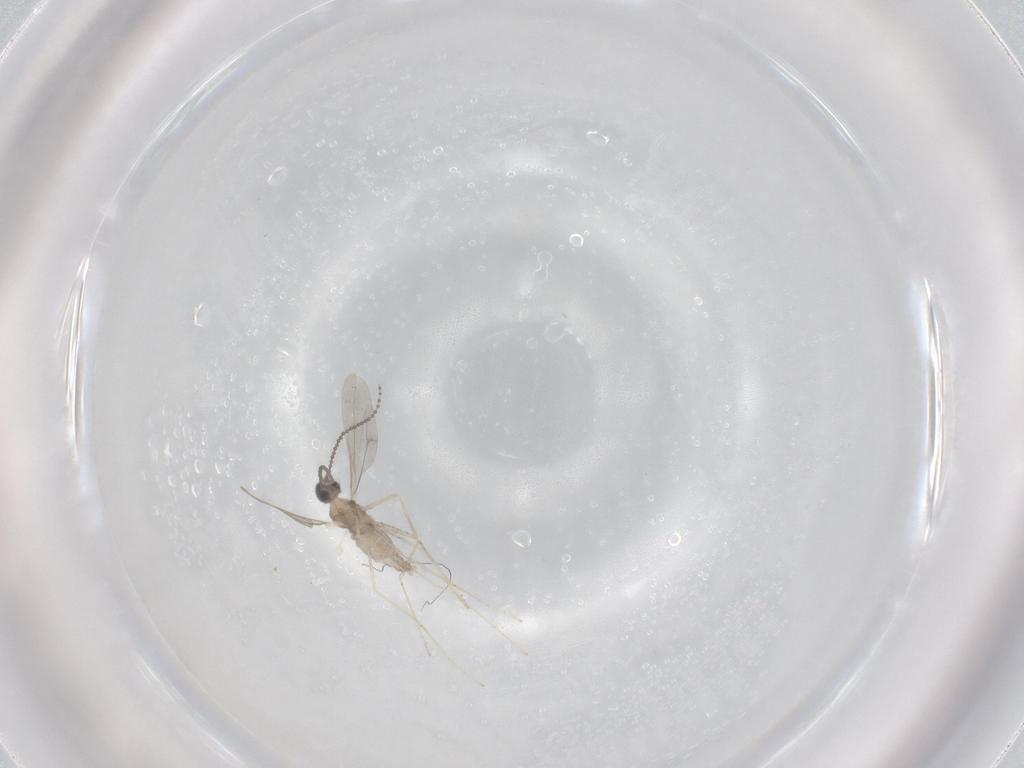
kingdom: Animalia
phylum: Arthropoda
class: Insecta
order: Diptera
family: Cecidomyiidae
